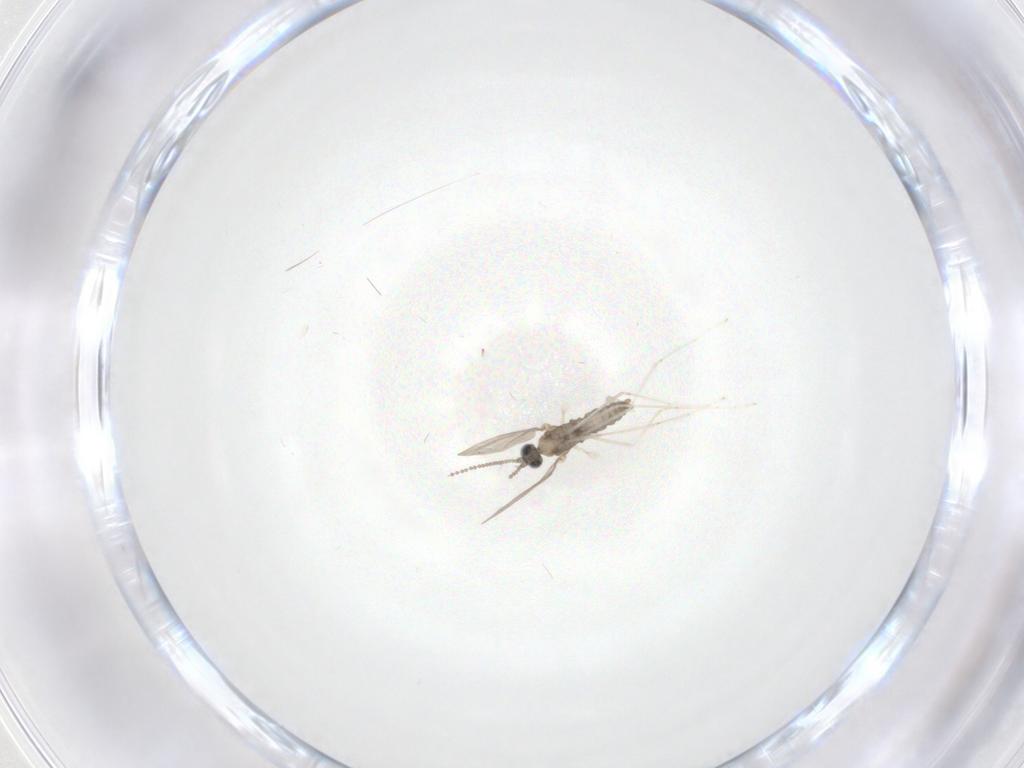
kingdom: Animalia
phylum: Arthropoda
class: Insecta
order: Diptera
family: Cecidomyiidae
